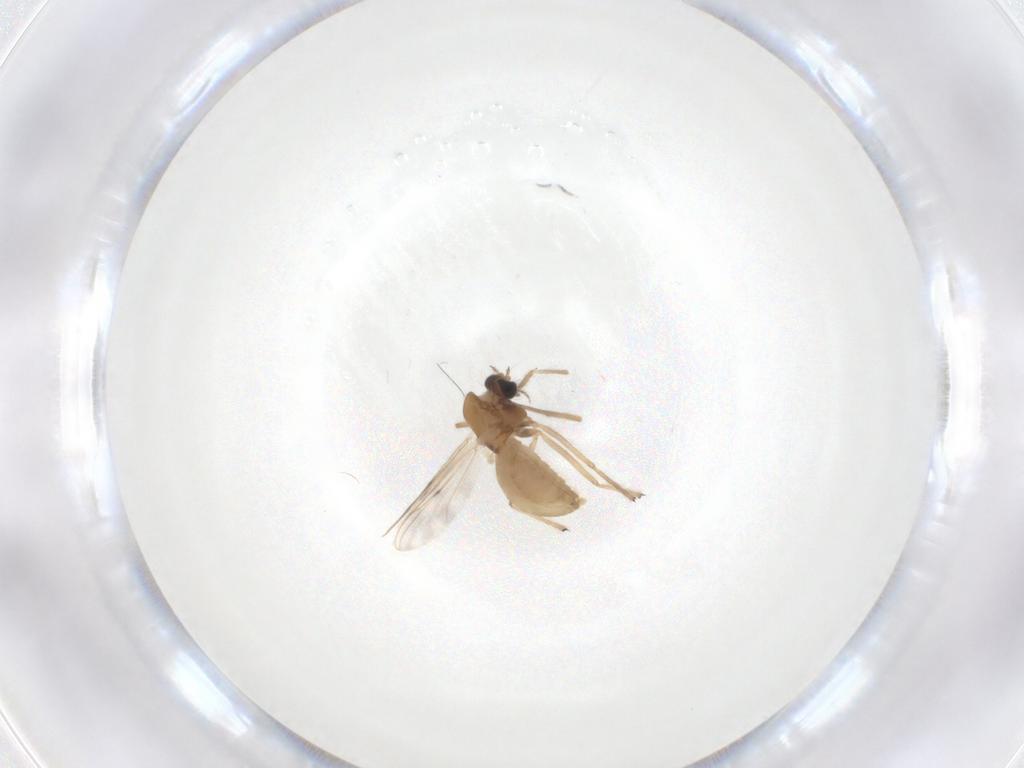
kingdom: Animalia
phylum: Arthropoda
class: Insecta
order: Diptera
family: Chironomidae
